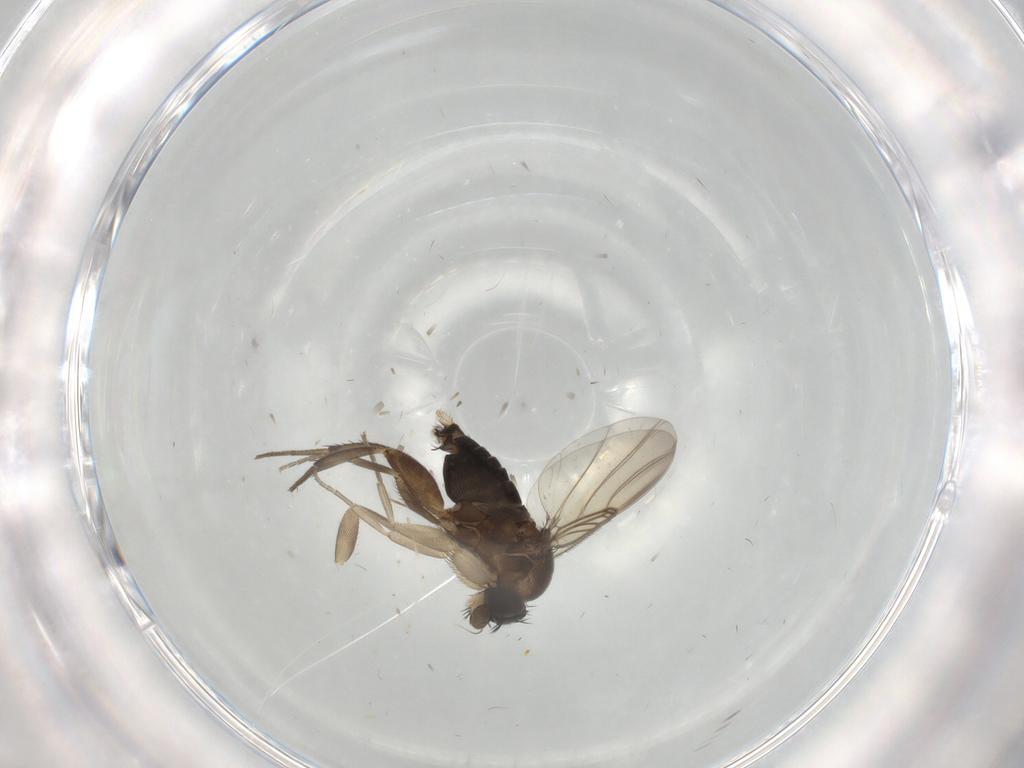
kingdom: Animalia
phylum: Arthropoda
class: Insecta
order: Diptera
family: Phoridae
